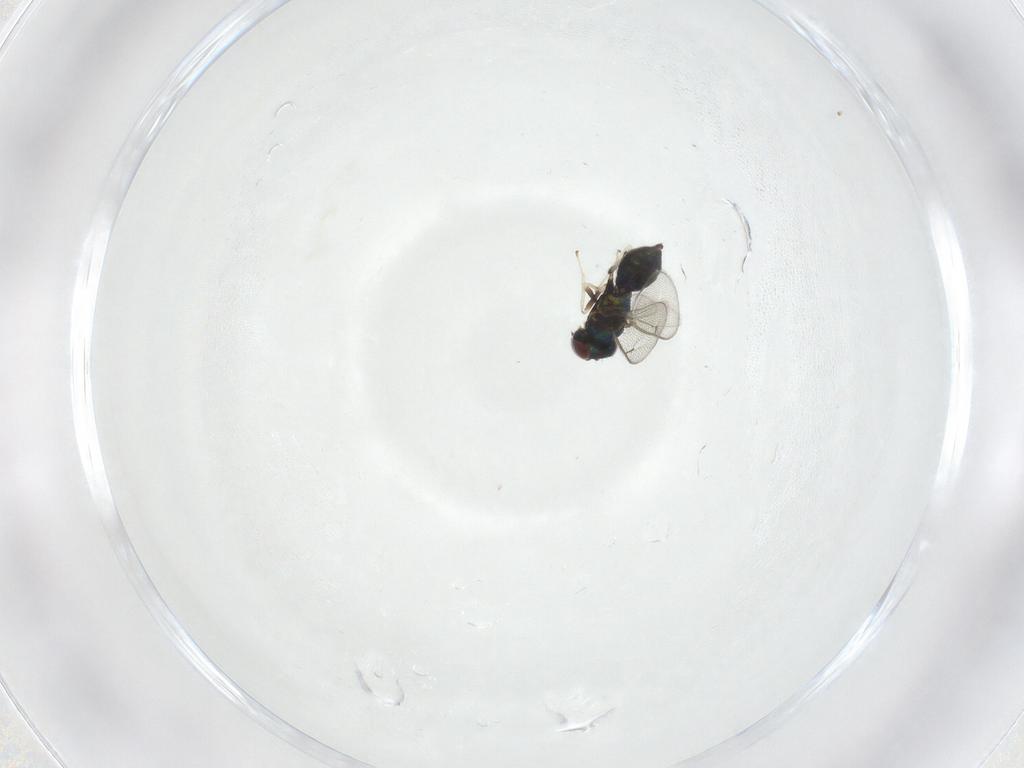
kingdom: Animalia
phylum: Arthropoda
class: Insecta
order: Hymenoptera
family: Eulophidae
